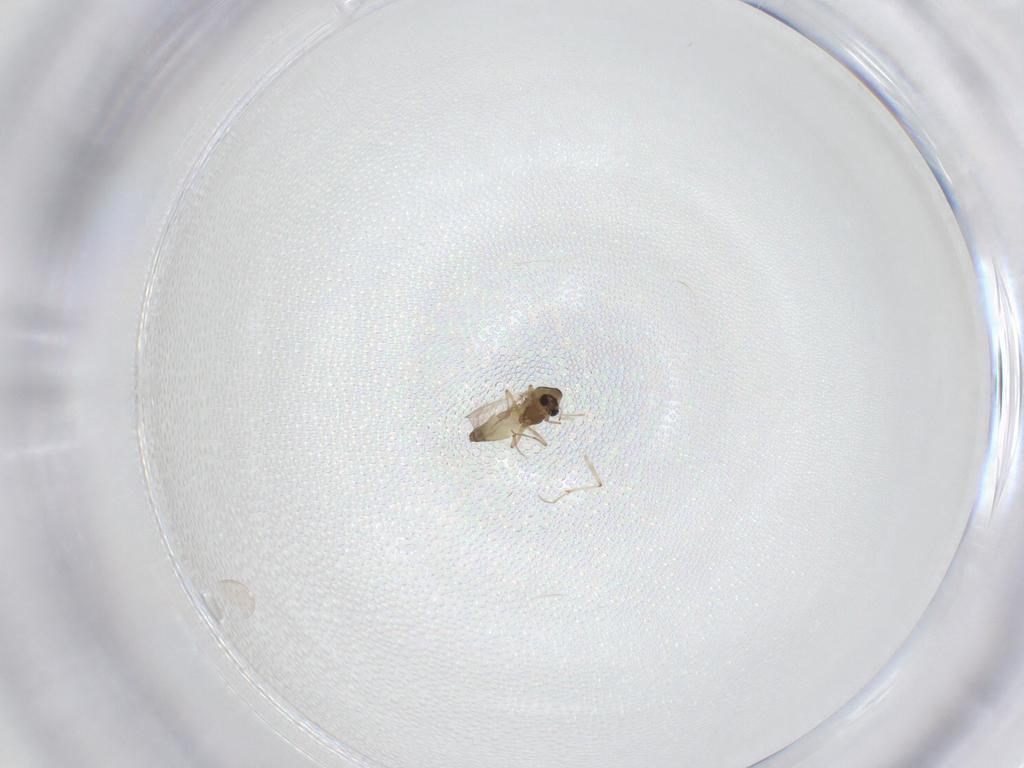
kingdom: Animalia
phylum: Arthropoda
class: Insecta
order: Diptera
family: Chironomidae
